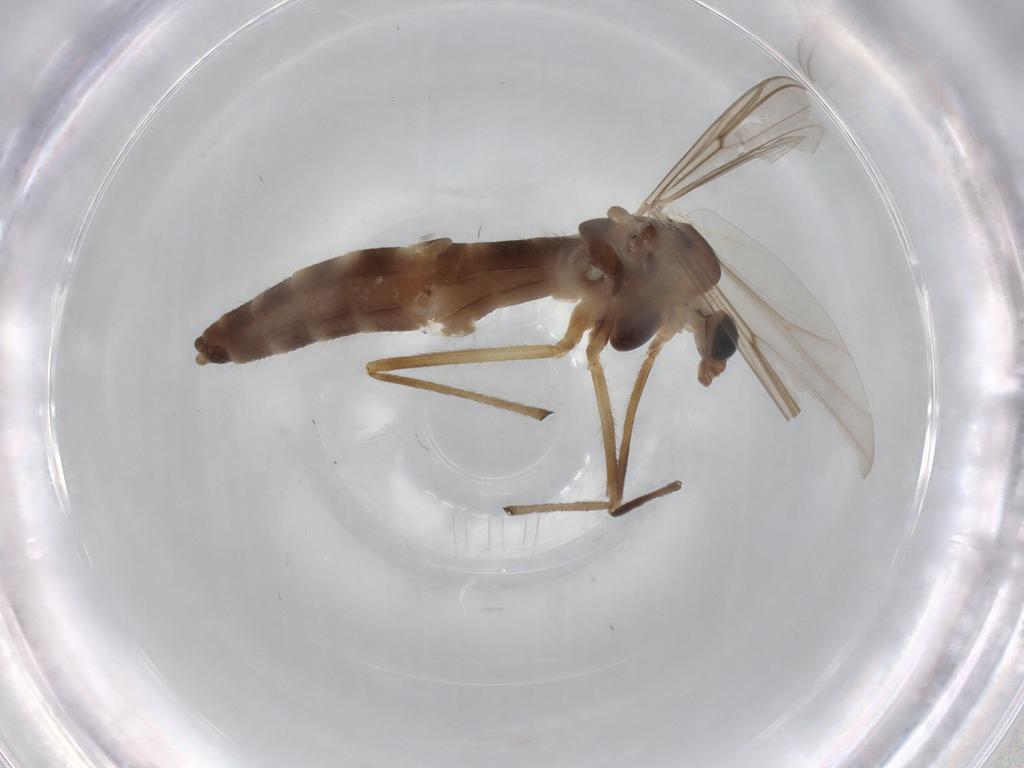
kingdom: Animalia
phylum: Arthropoda
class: Insecta
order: Diptera
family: Chironomidae
